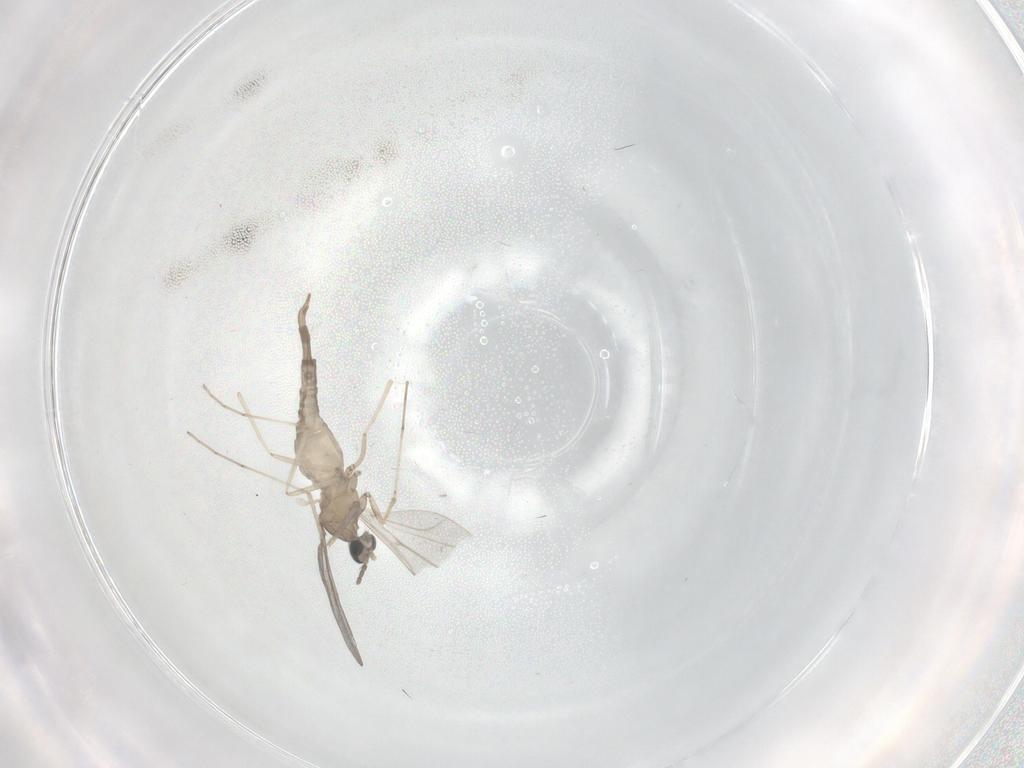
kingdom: Animalia
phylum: Arthropoda
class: Insecta
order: Diptera
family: Cecidomyiidae
